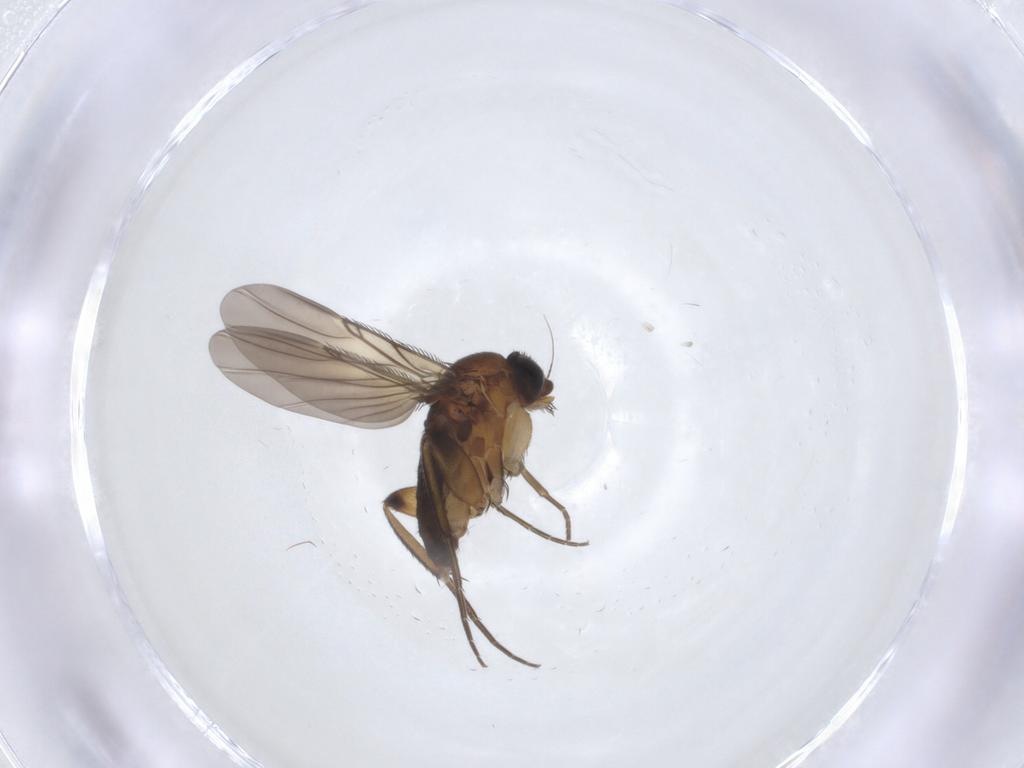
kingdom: Animalia
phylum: Arthropoda
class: Insecta
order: Diptera
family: Phoridae
